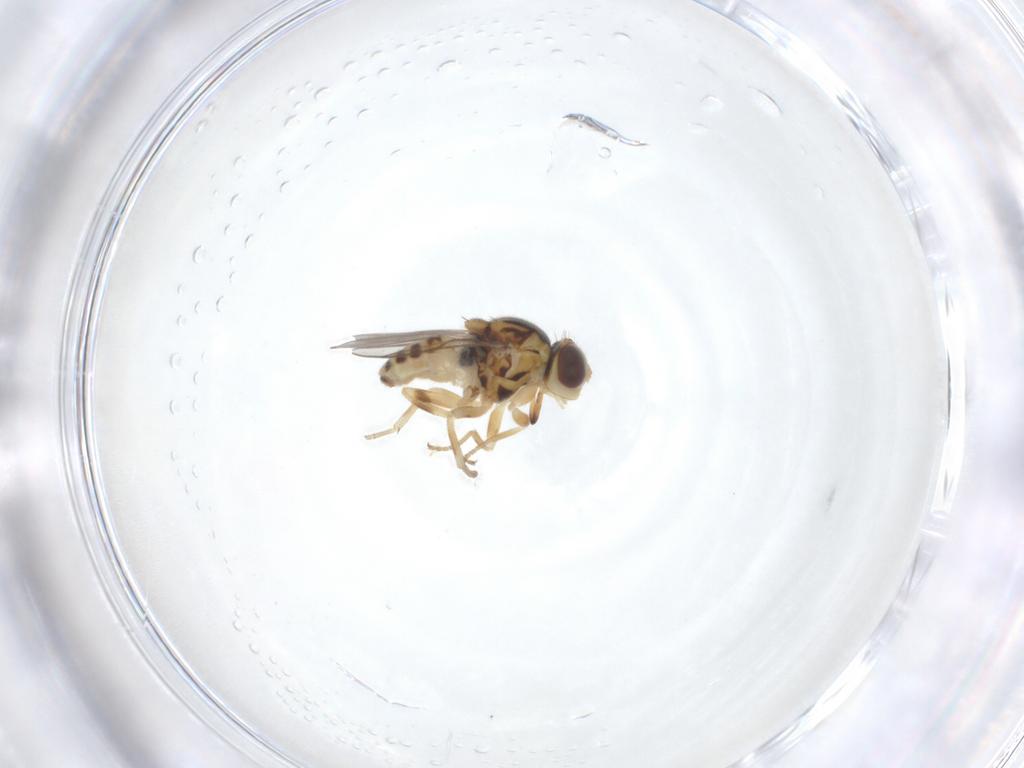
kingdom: Animalia
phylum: Arthropoda
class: Insecta
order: Diptera
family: Chloropidae
